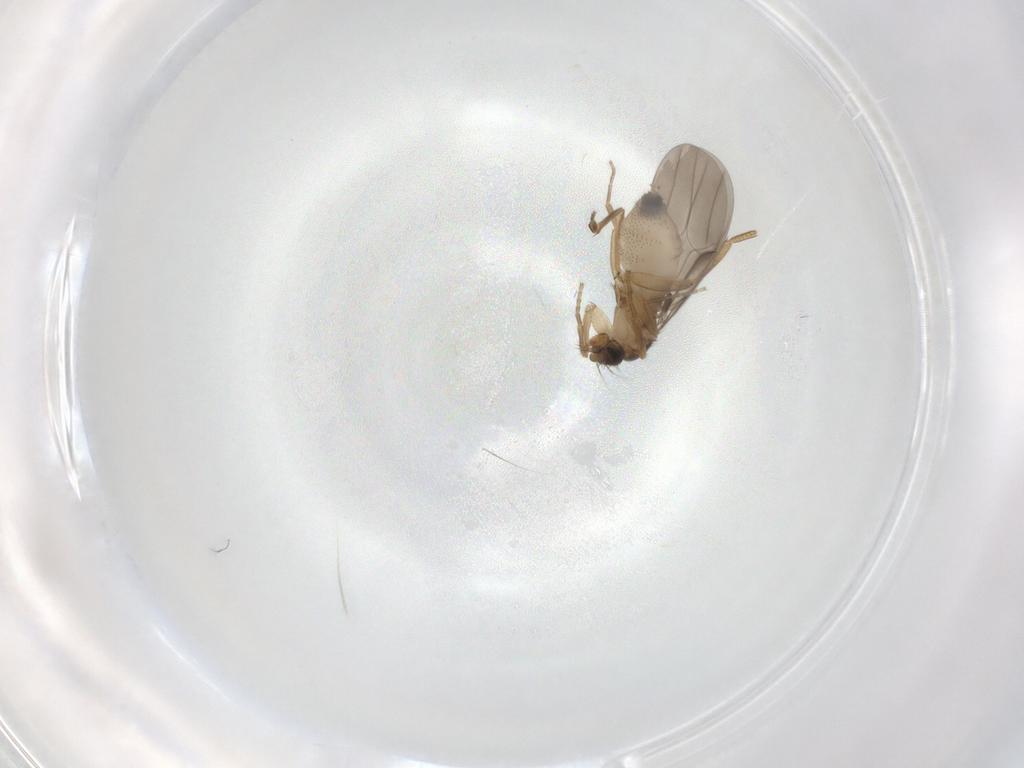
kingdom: Animalia
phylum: Arthropoda
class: Insecta
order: Diptera
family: Phoridae
